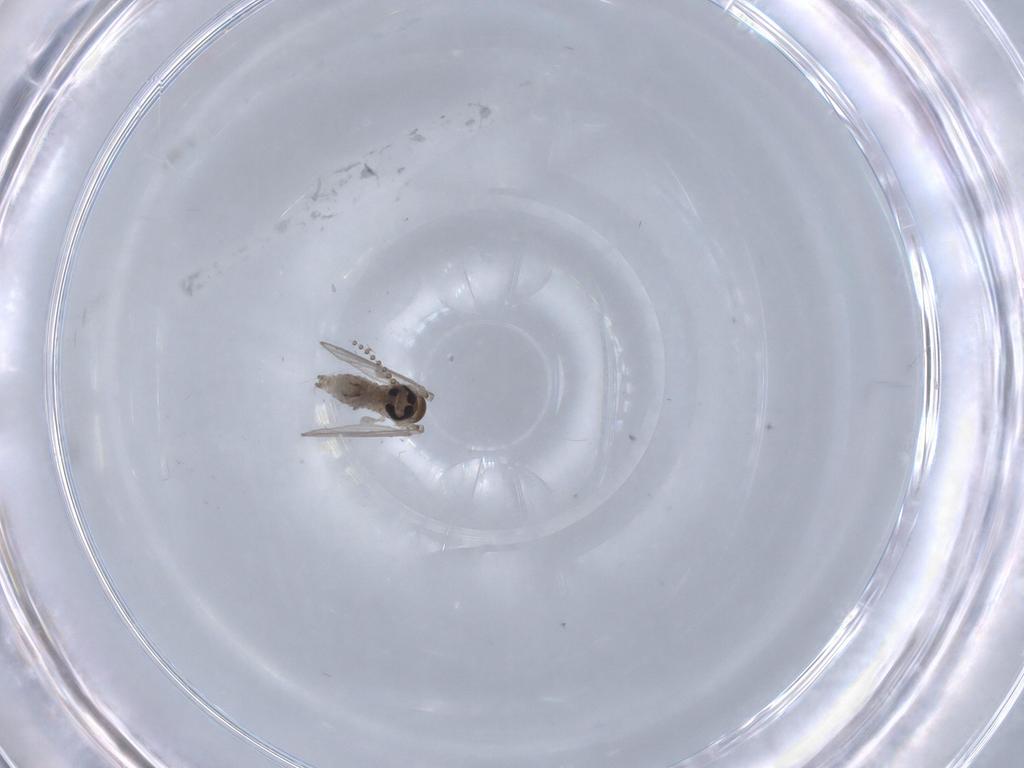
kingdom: Animalia
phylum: Arthropoda
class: Insecta
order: Diptera
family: Psychodidae
